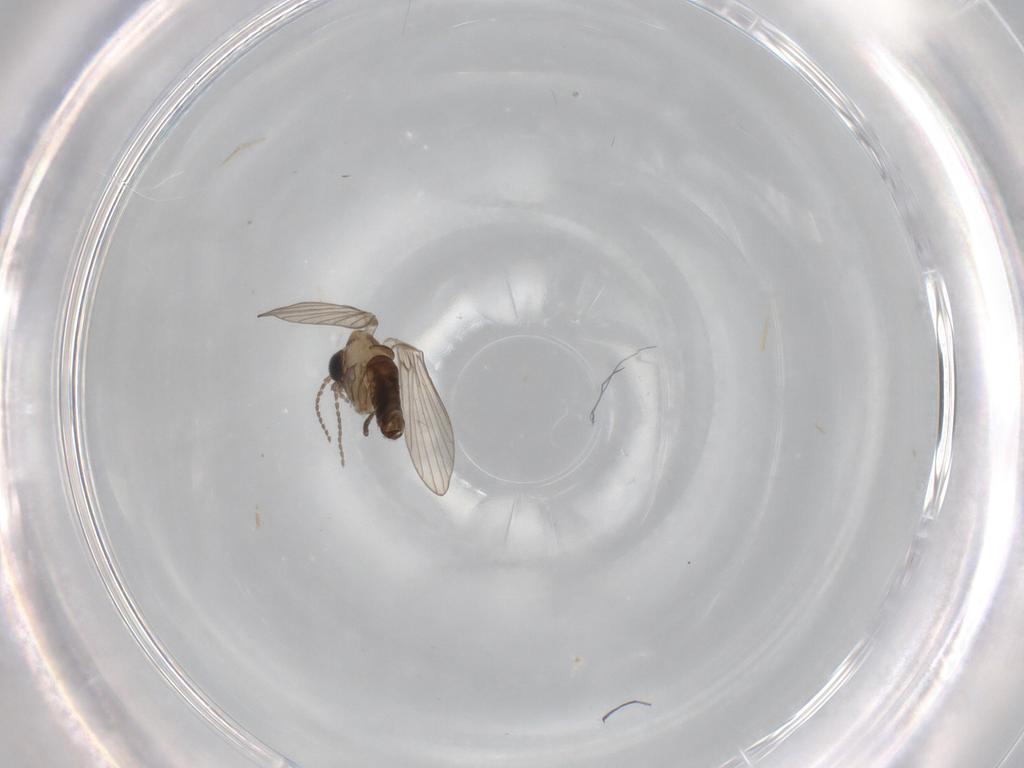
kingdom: Animalia
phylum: Arthropoda
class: Insecta
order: Diptera
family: Psychodidae
